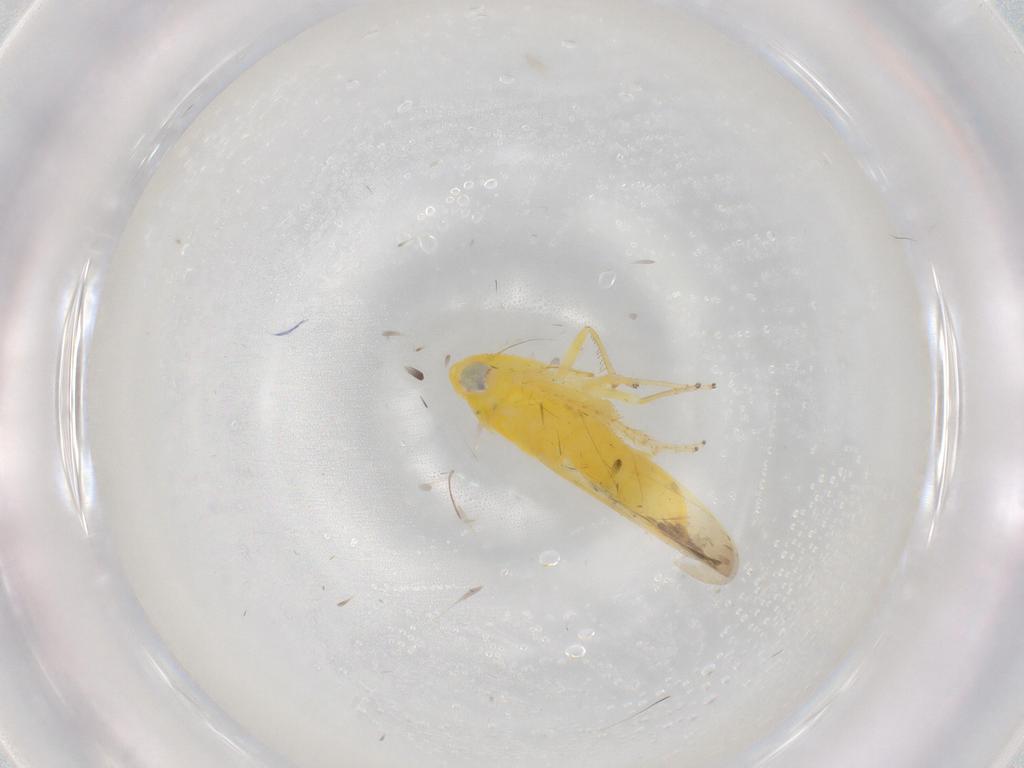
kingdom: Animalia
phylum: Arthropoda
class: Insecta
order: Hemiptera
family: Cicadellidae
